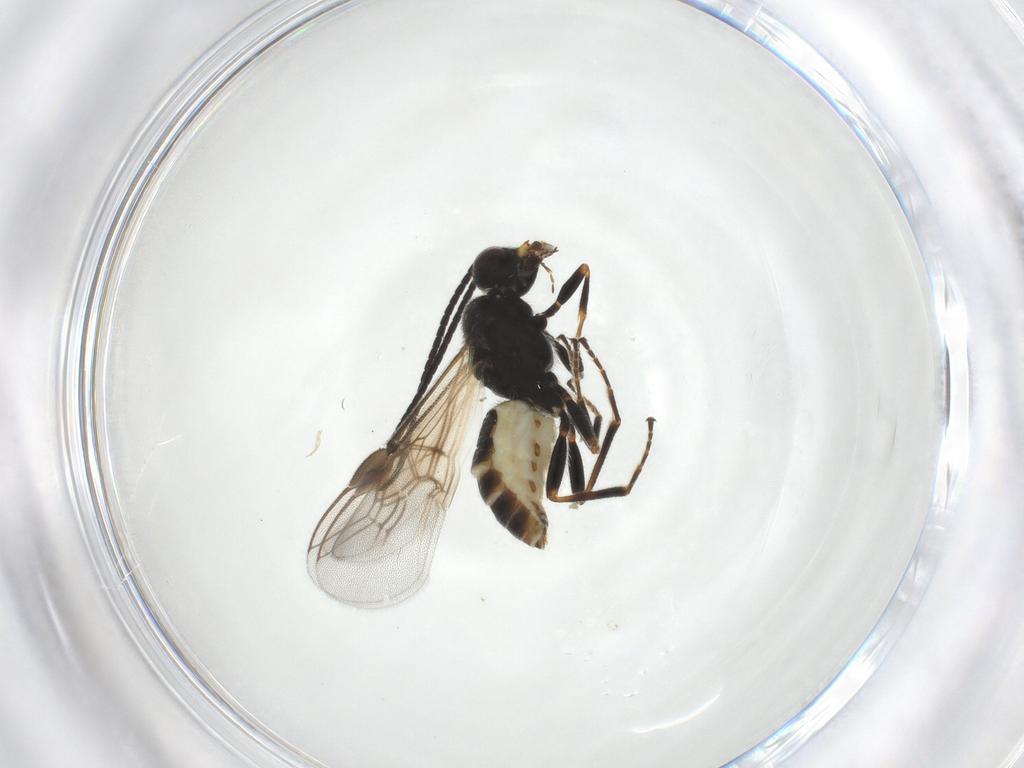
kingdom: Animalia
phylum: Arthropoda
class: Insecta
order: Hymenoptera
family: Braconidae
